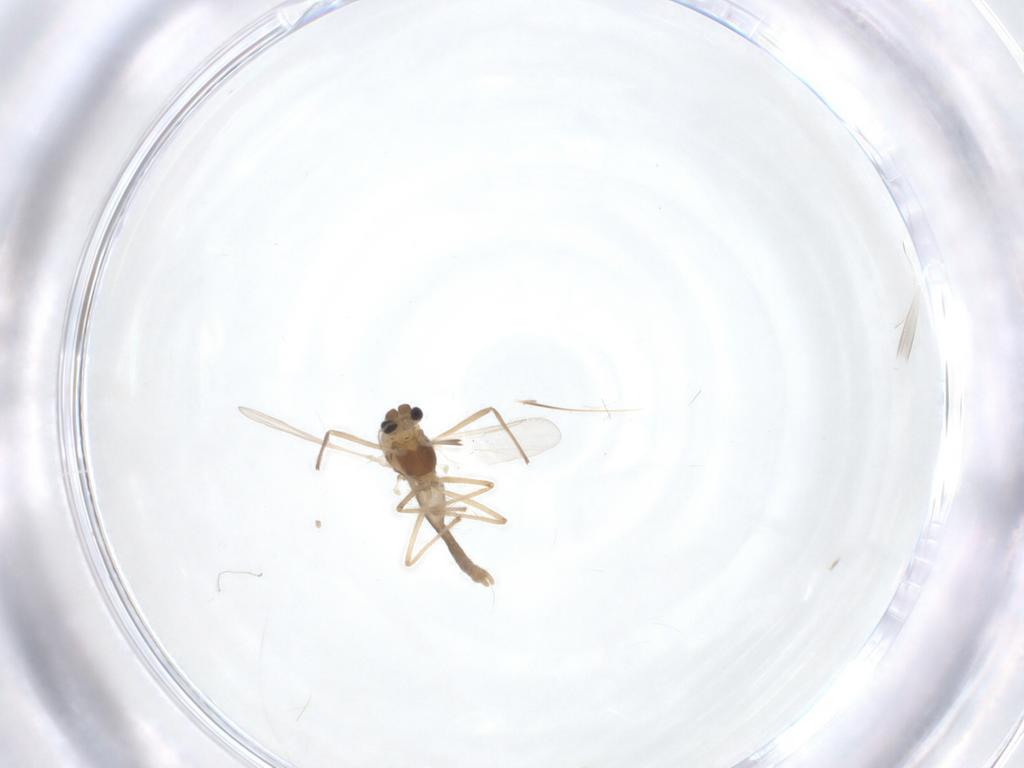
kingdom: Animalia
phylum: Arthropoda
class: Insecta
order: Diptera
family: Chironomidae
